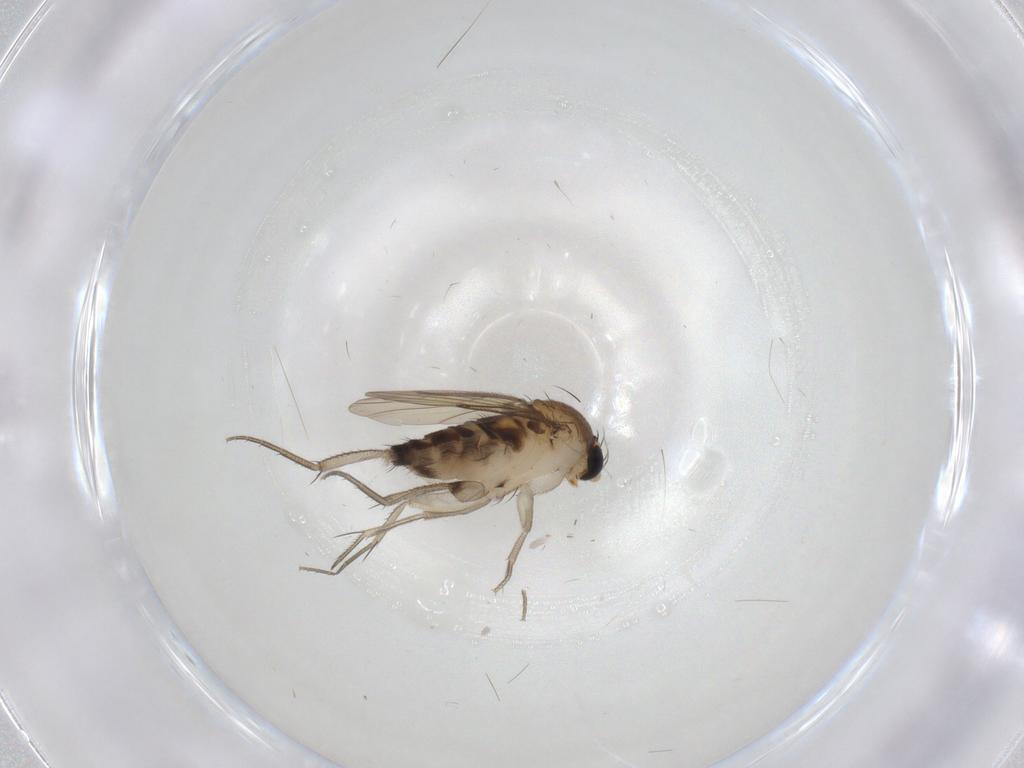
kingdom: Animalia
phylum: Arthropoda
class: Insecta
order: Diptera
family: Phoridae
